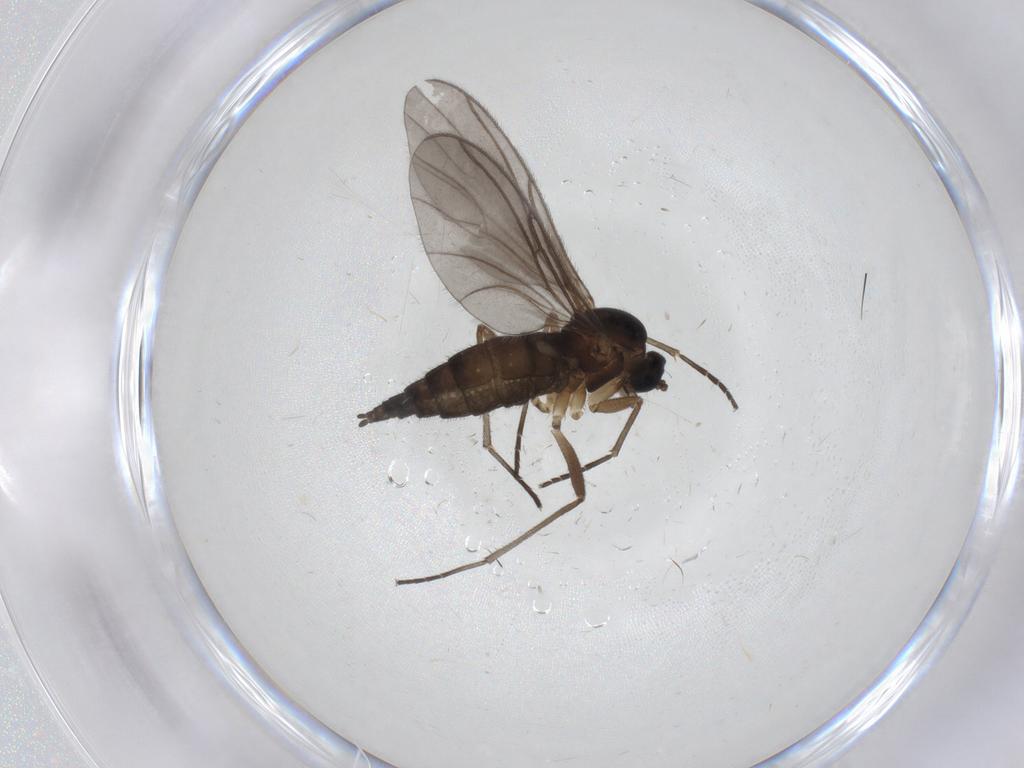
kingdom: Animalia
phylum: Arthropoda
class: Insecta
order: Diptera
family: Sciaridae
